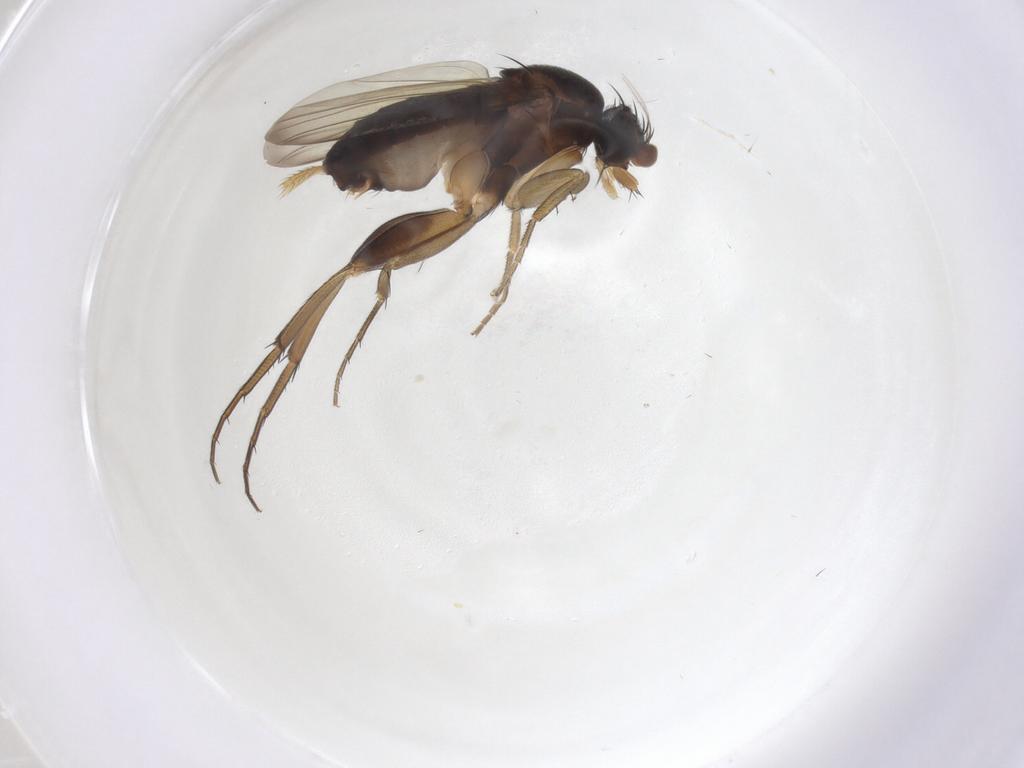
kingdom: Animalia
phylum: Arthropoda
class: Insecta
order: Diptera
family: Phoridae
